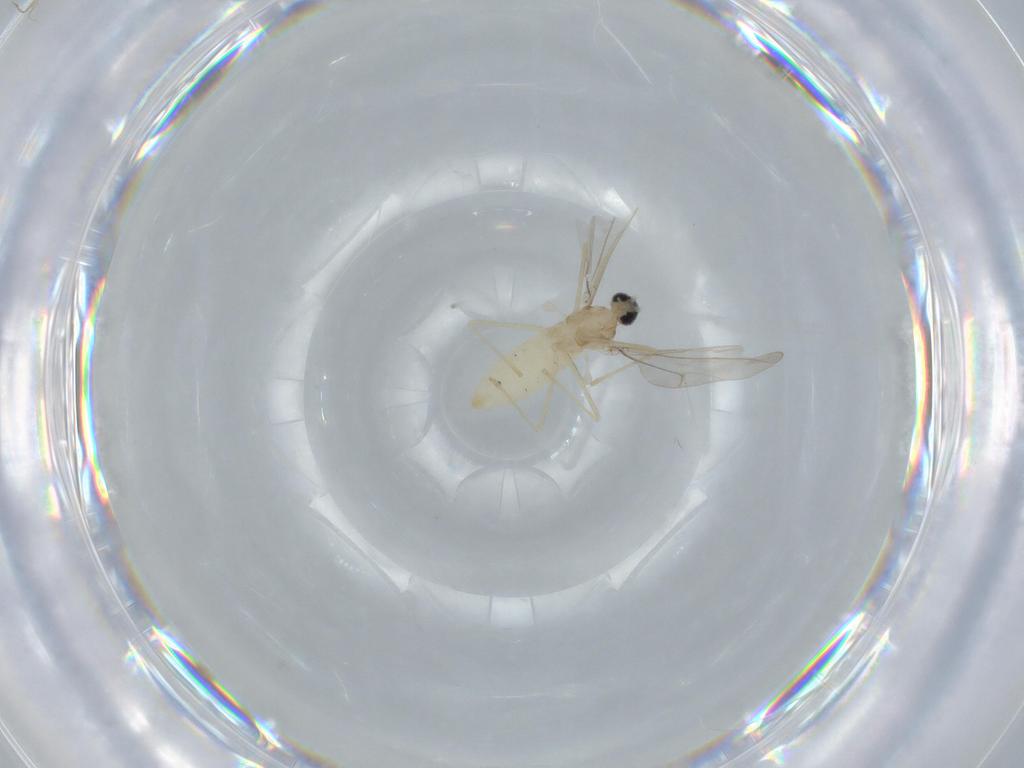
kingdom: Animalia
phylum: Arthropoda
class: Insecta
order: Diptera
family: Cecidomyiidae
